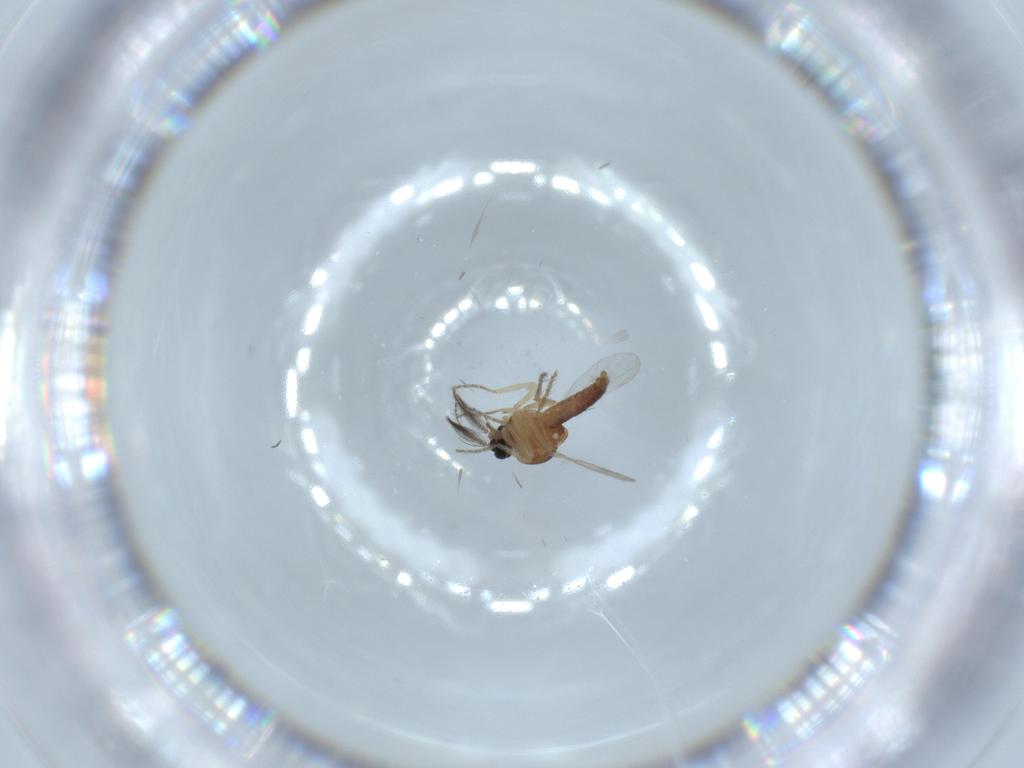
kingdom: Animalia
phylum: Arthropoda
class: Insecta
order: Diptera
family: Ceratopogonidae
